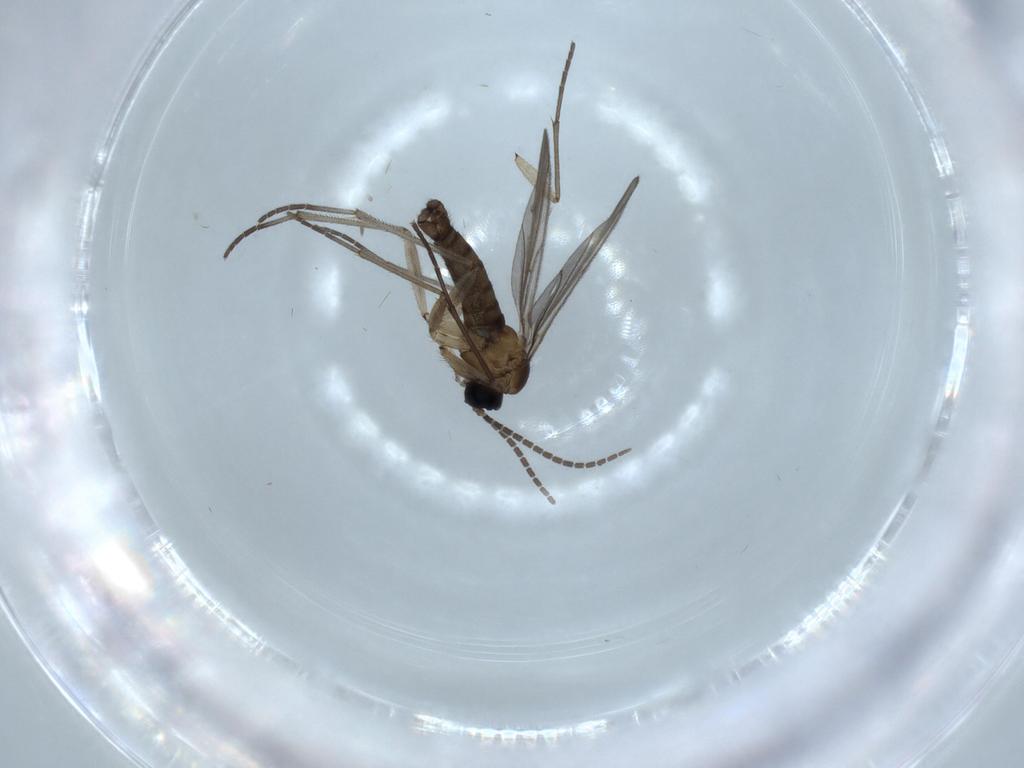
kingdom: Animalia
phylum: Arthropoda
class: Insecta
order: Diptera
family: Sciaridae
